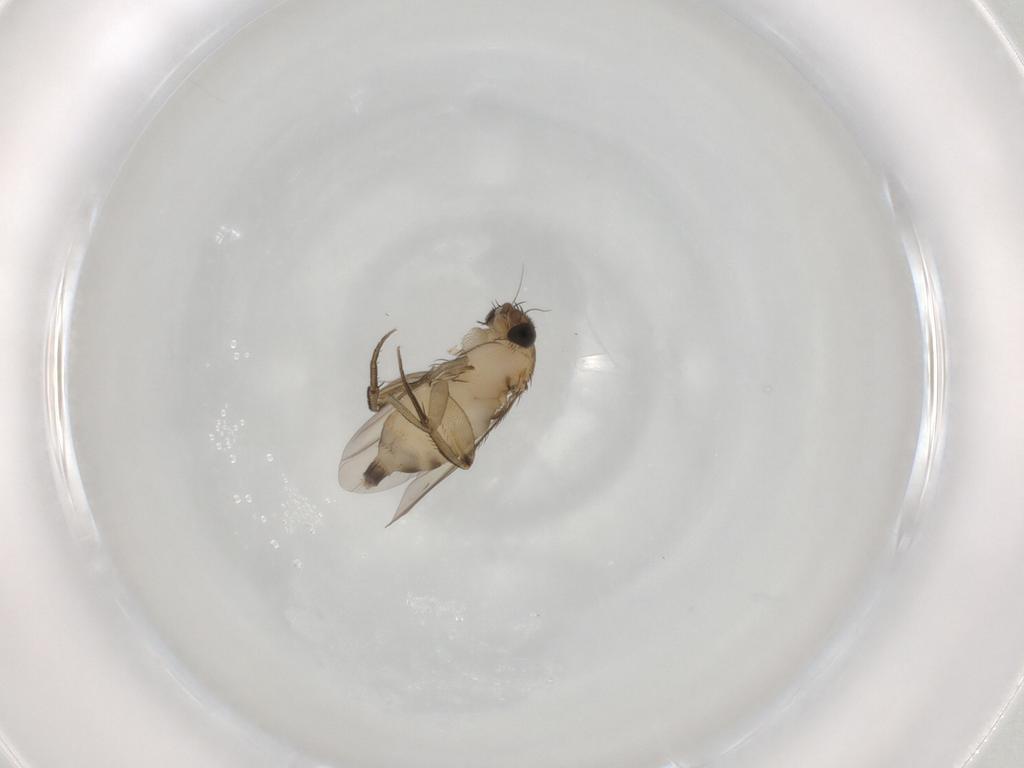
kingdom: Animalia
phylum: Arthropoda
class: Insecta
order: Diptera
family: Phoridae
